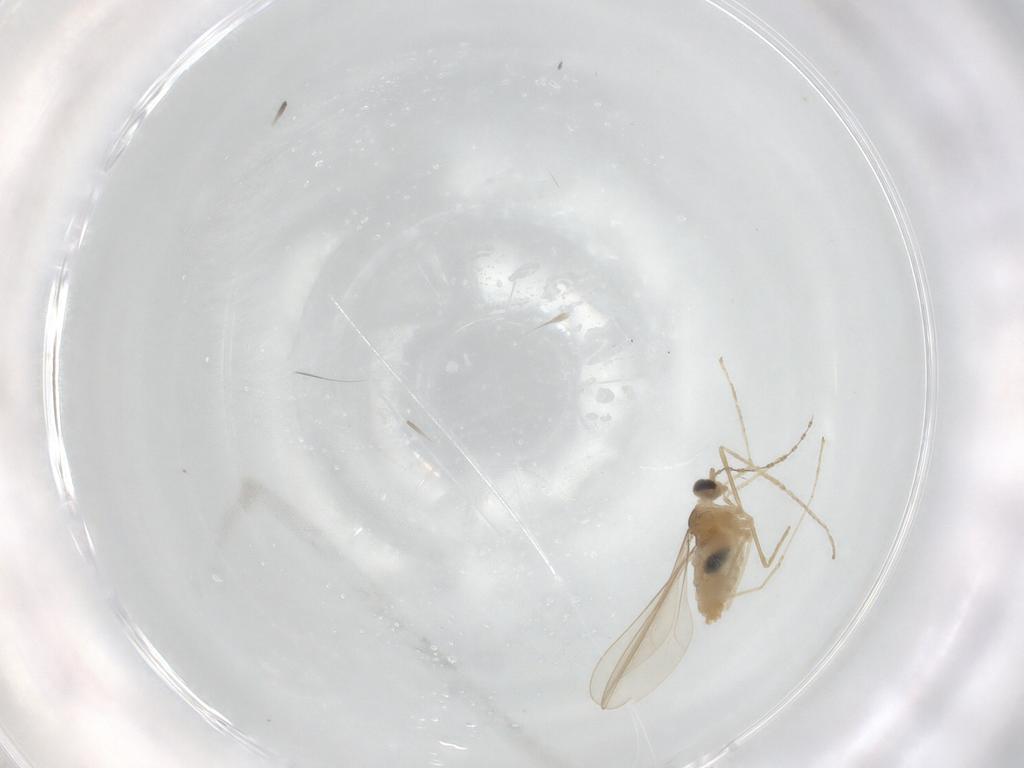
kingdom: Animalia
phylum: Arthropoda
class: Insecta
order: Diptera
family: Cecidomyiidae
